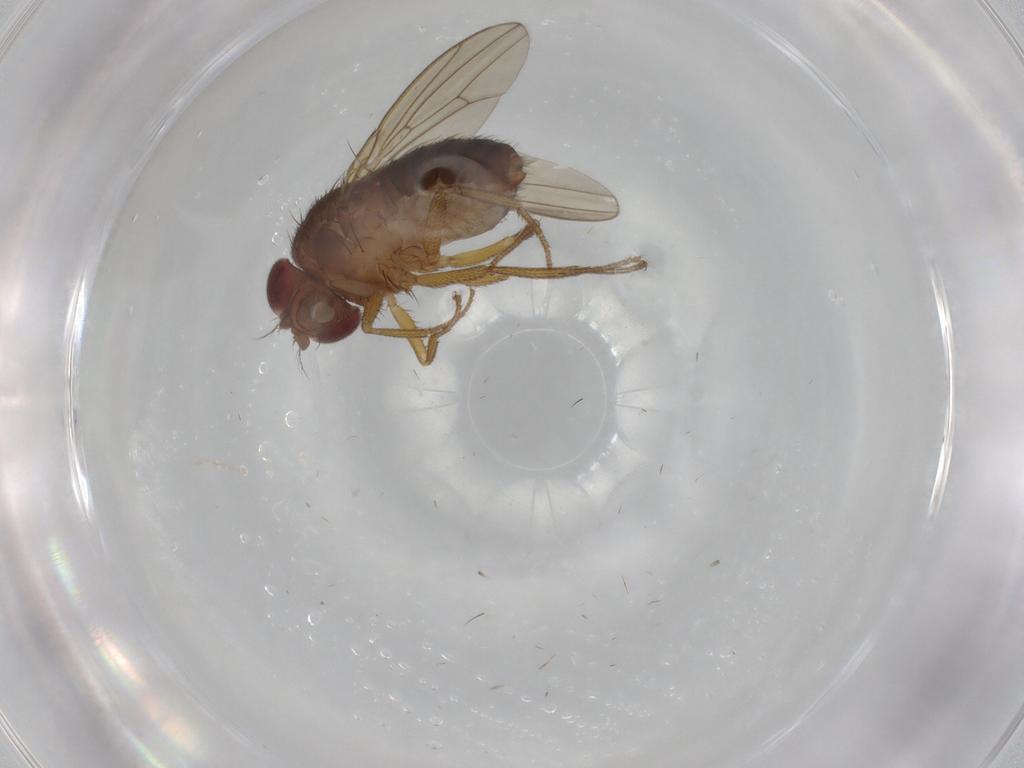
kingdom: Animalia
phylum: Arthropoda
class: Insecta
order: Diptera
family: Drosophilidae
